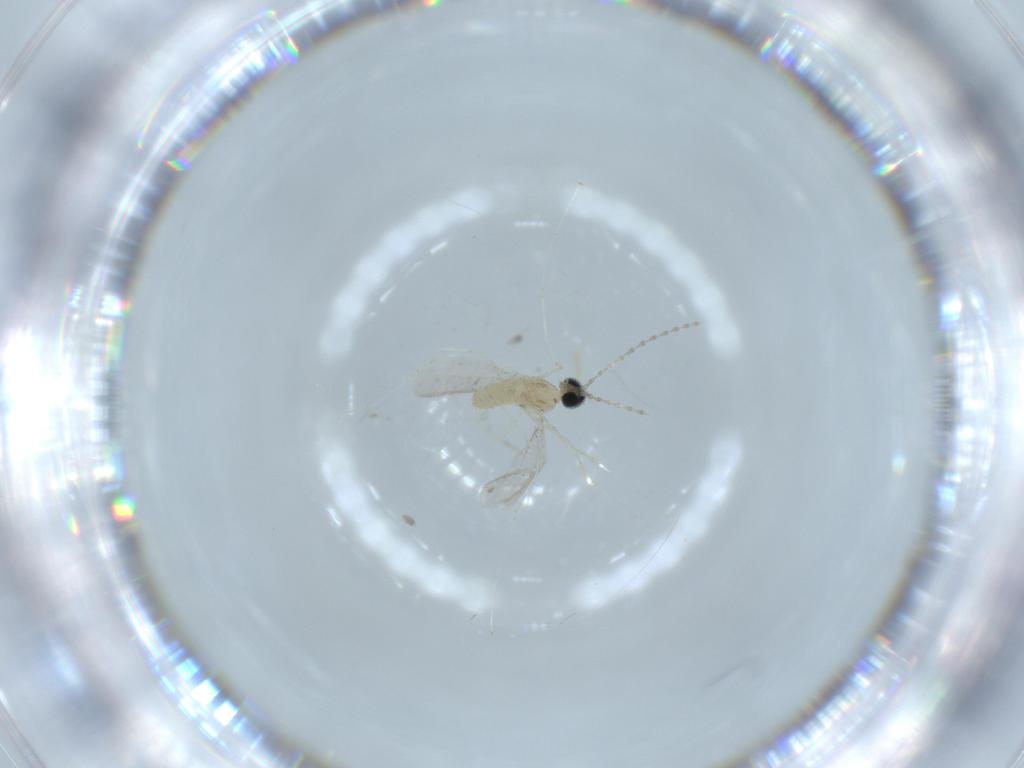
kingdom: Animalia
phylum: Arthropoda
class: Insecta
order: Diptera
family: Cecidomyiidae
